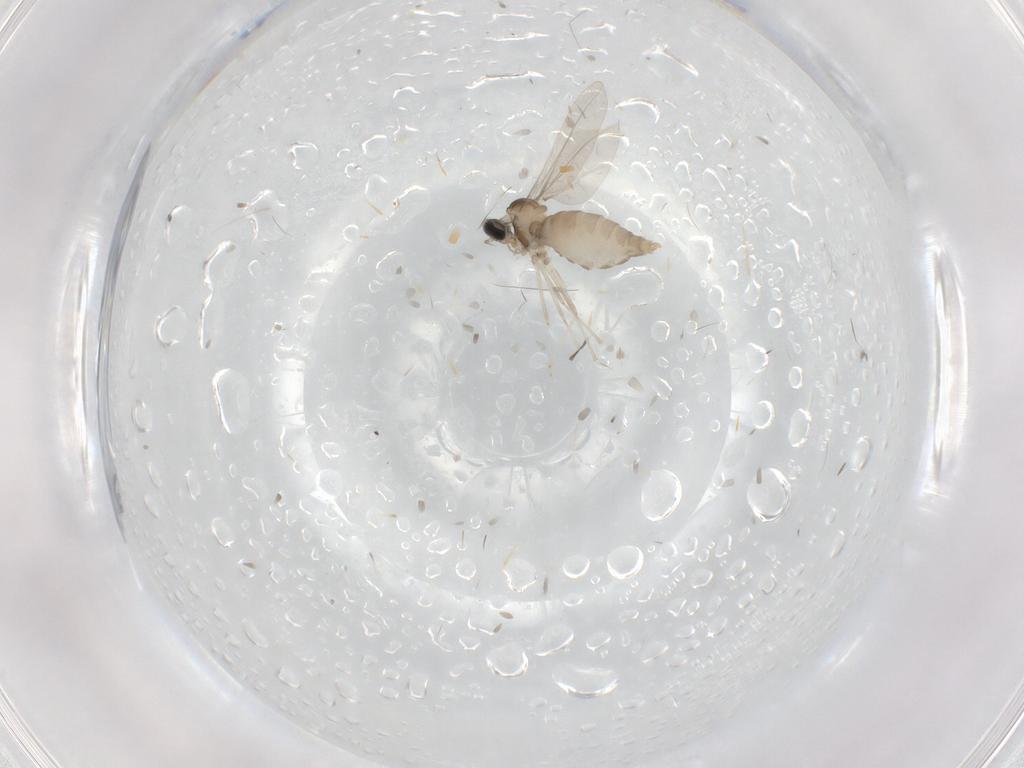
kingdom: Animalia
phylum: Arthropoda
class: Insecta
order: Diptera
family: Cecidomyiidae
